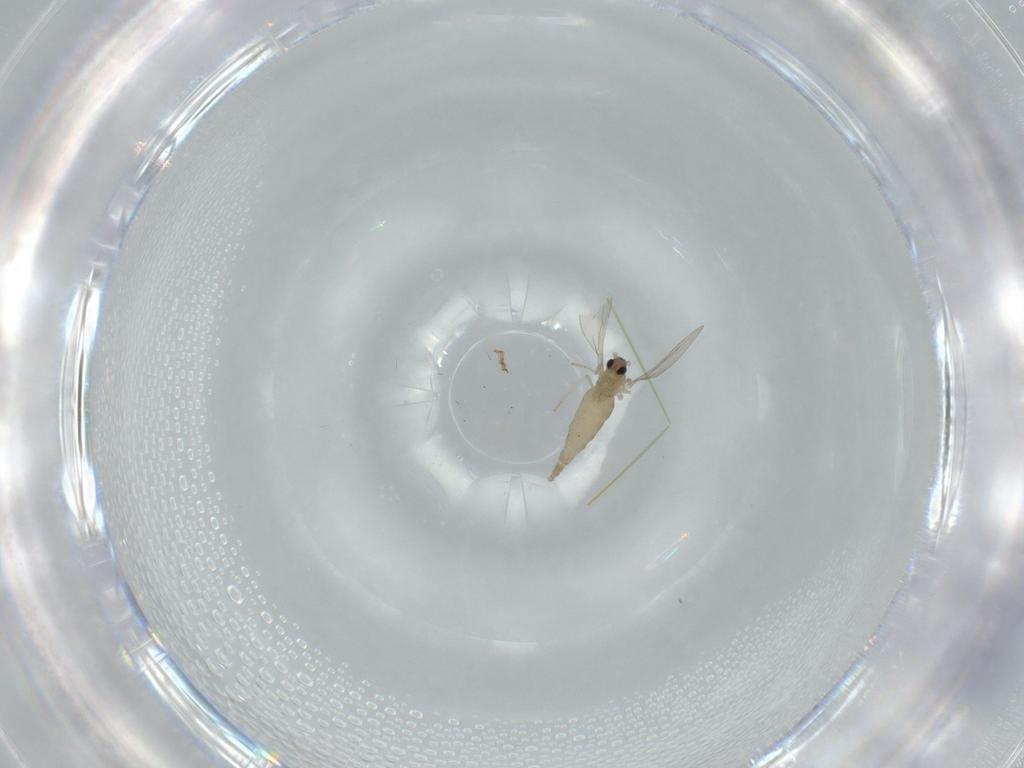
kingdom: Animalia
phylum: Arthropoda
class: Insecta
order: Diptera
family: Cecidomyiidae
